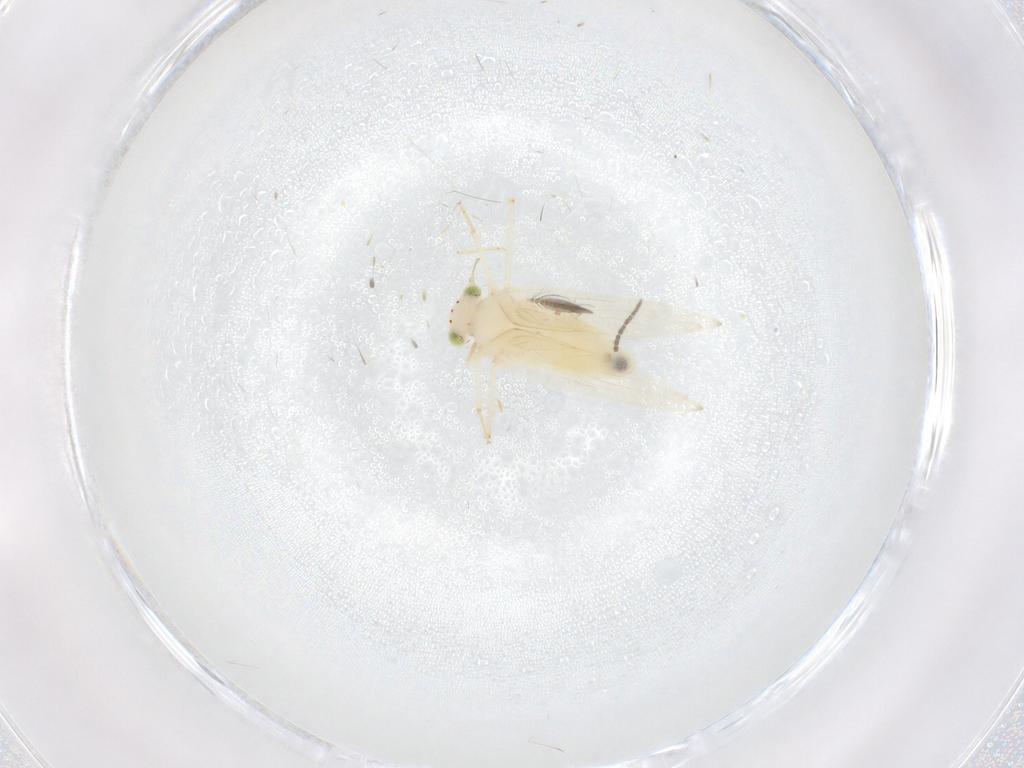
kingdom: Animalia
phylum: Arthropoda
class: Insecta
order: Psocodea
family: Lepidopsocidae
